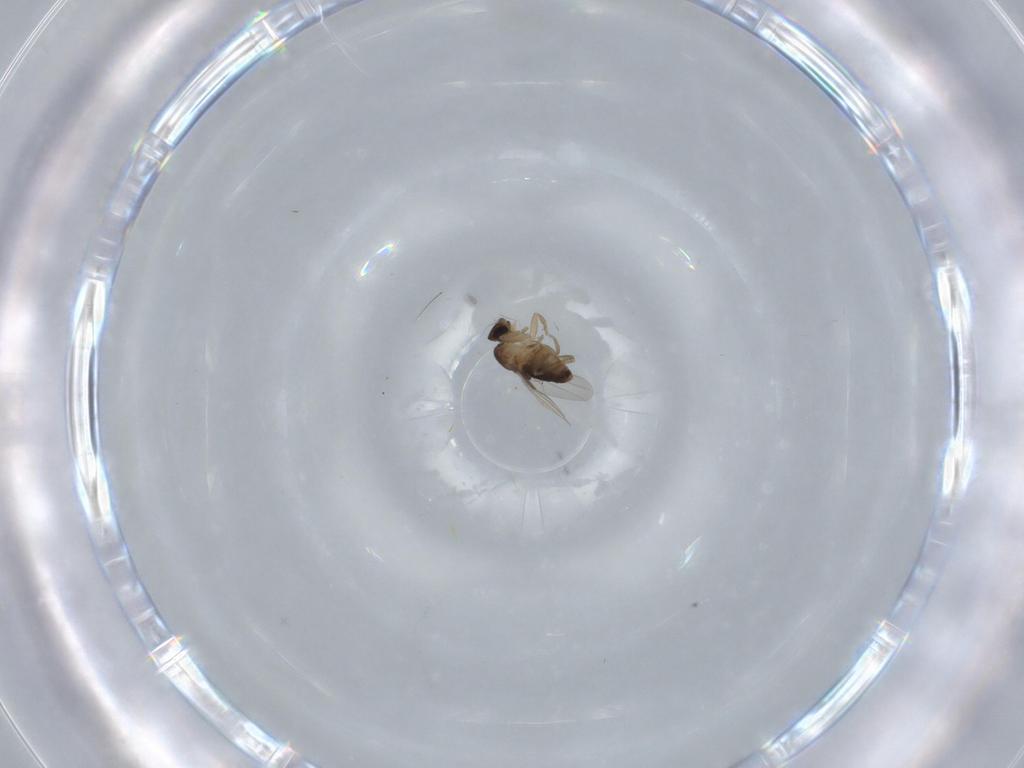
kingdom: Animalia
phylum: Arthropoda
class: Insecta
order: Diptera
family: Phoridae
